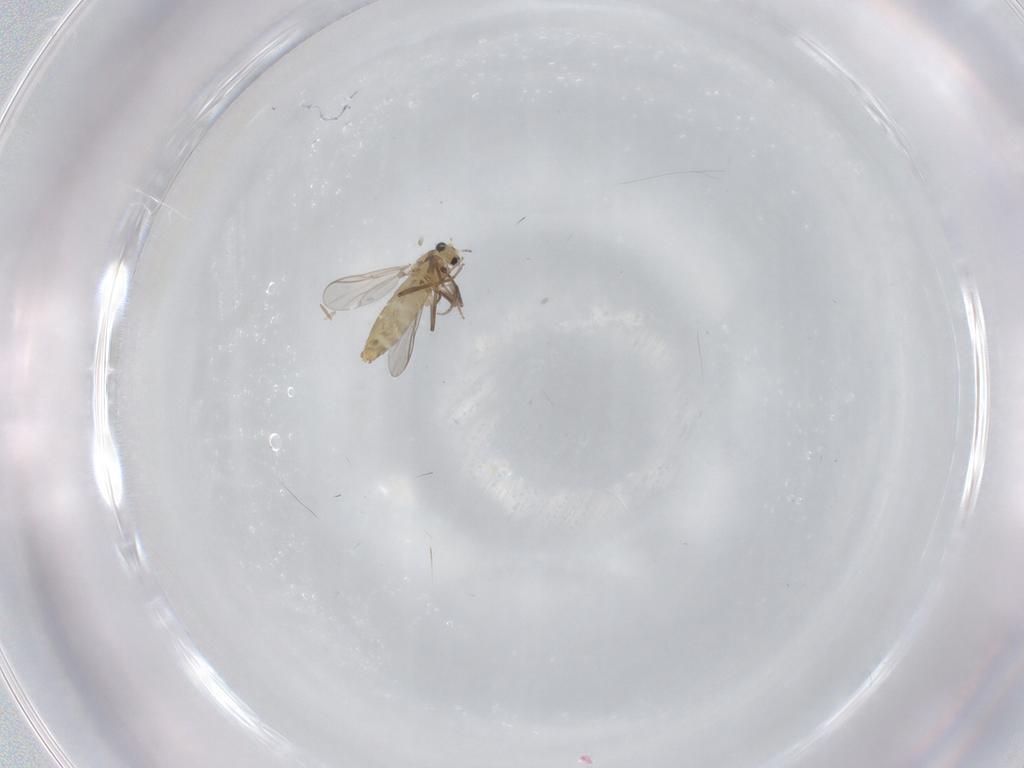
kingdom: Animalia
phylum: Arthropoda
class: Insecta
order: Diptera
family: Chironomidae
